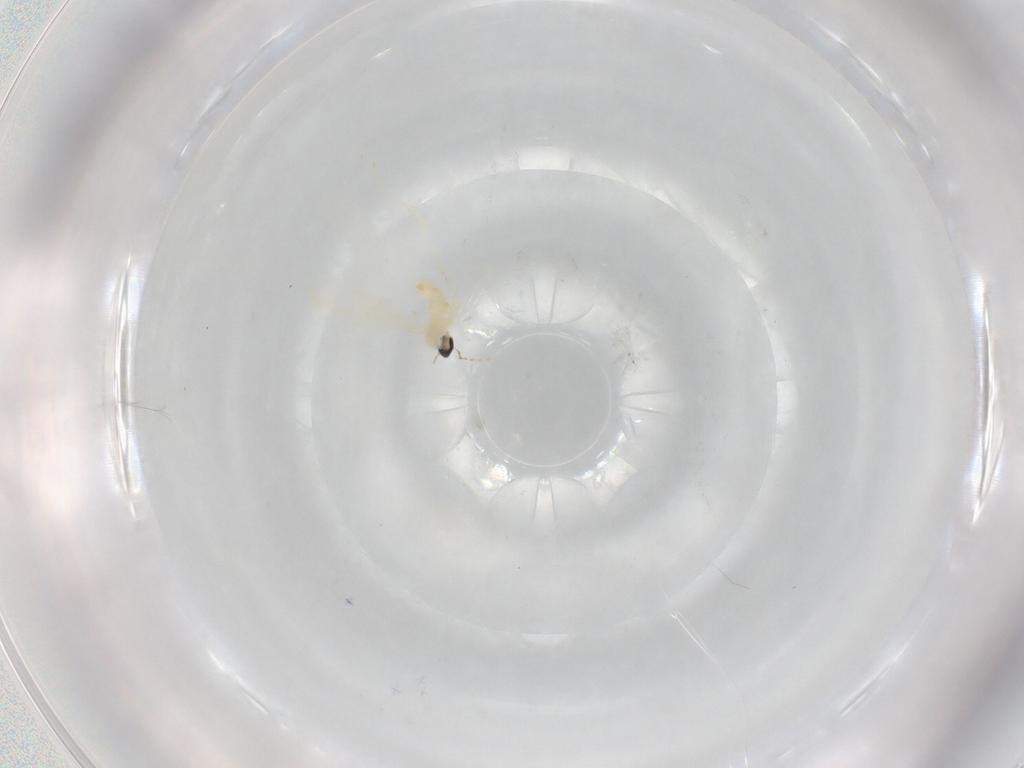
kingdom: Animalia
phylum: Arthropoda
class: Insecta
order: Diptera
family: Cecidomyiidae
